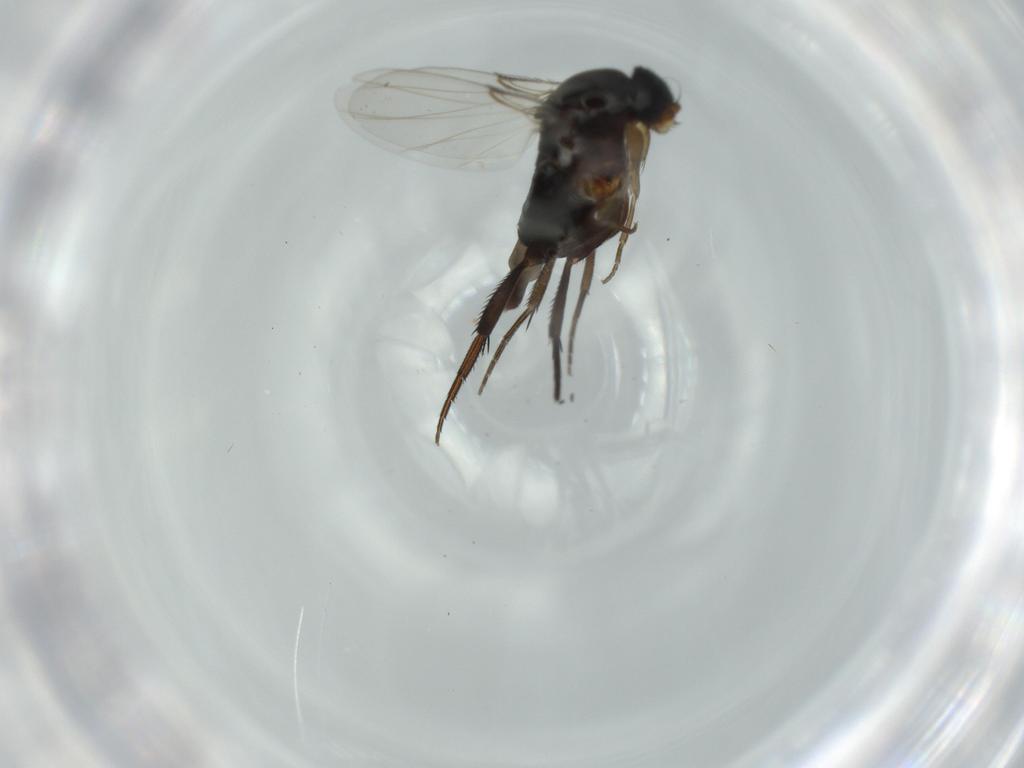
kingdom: Animalia
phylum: Arthropoda
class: Insecta
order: Diptera
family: Phoridae
